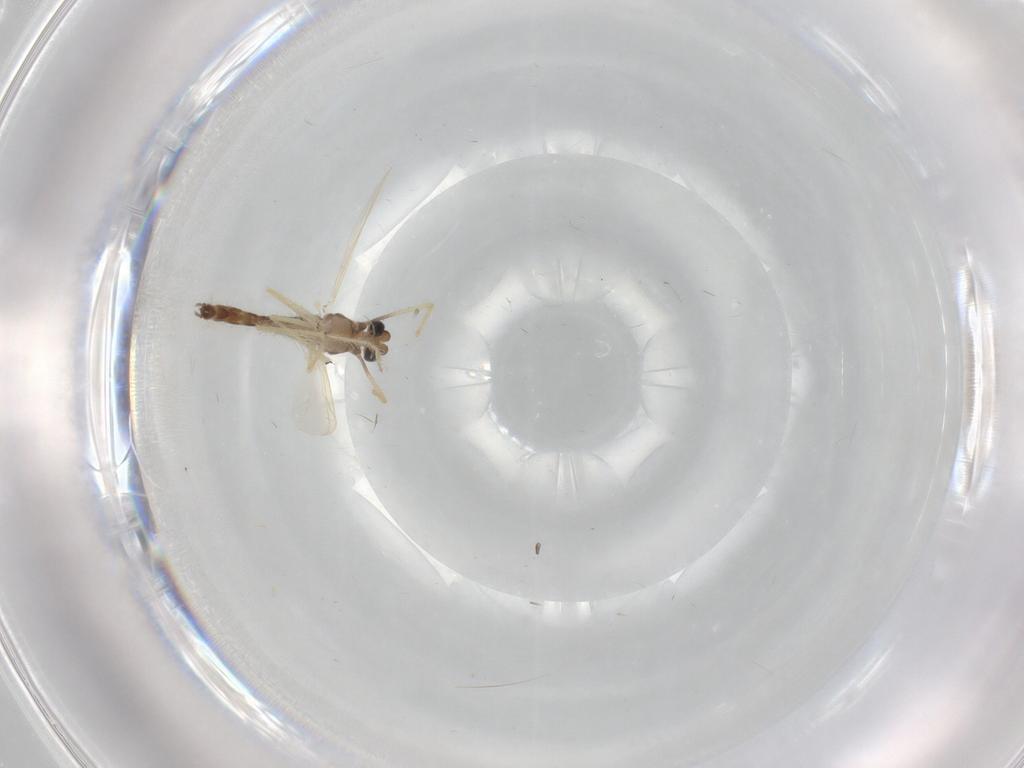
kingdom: Animalia
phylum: Arthropoda
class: Insecta
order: Diptera
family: Chironomidae
